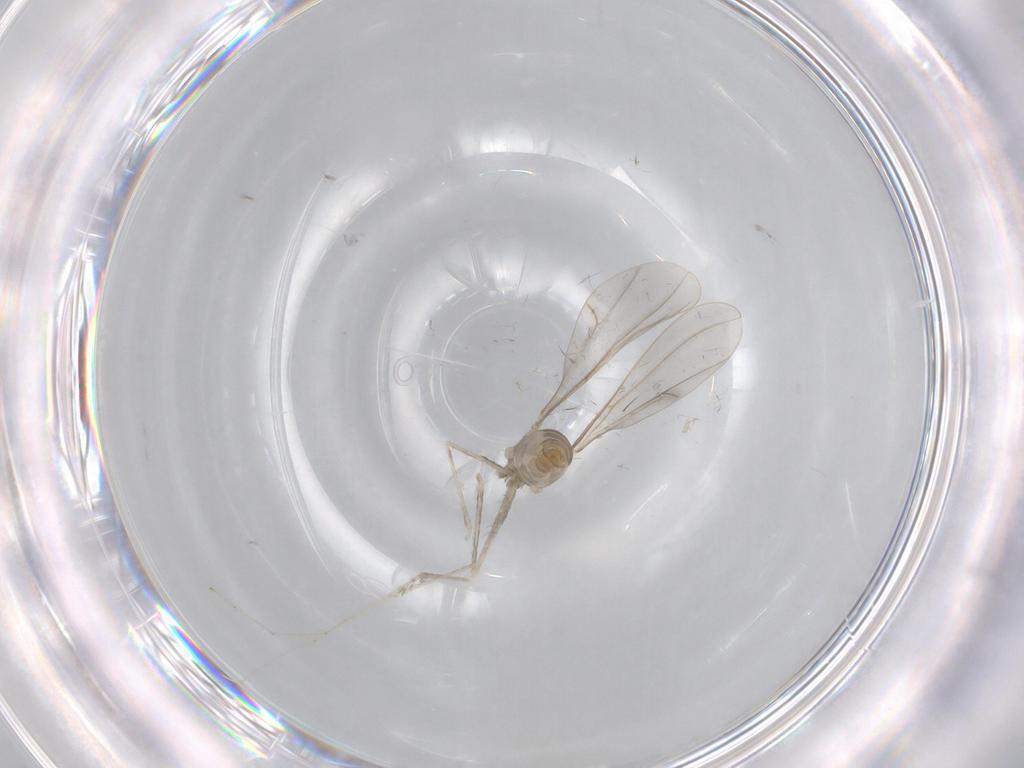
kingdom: Animalia
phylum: Arthropoda
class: Insecta
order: Diptera
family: Cecidomyiidae
